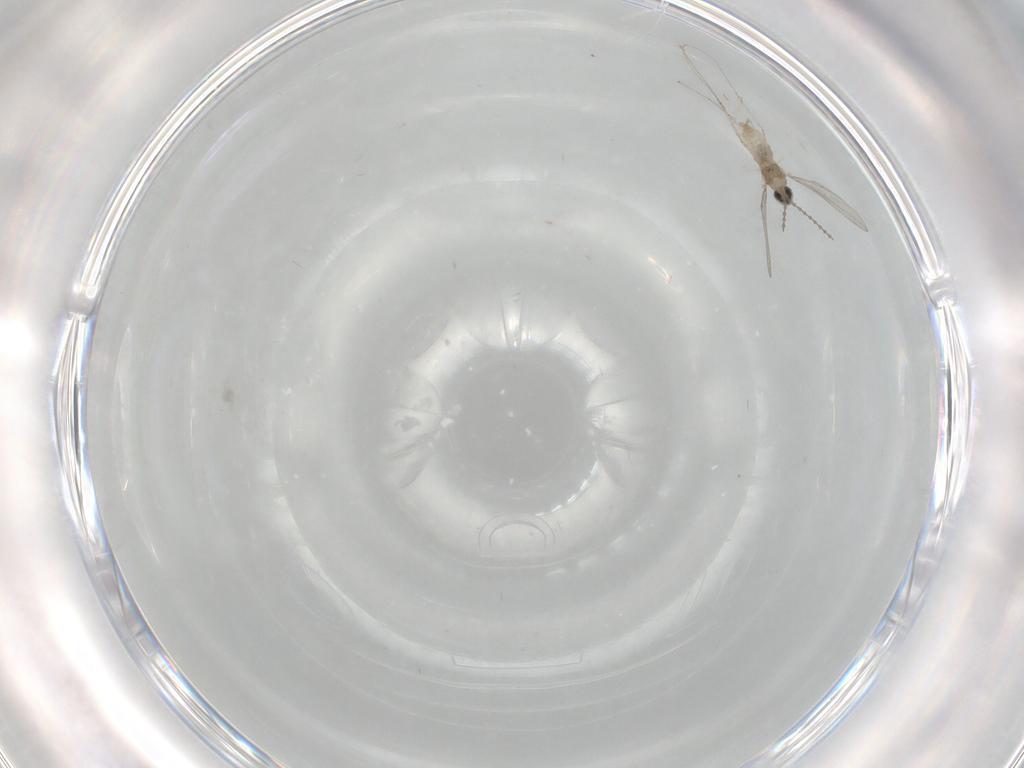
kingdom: Animalia
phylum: Arthropoda
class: Insecta
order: Diptera
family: Cecidomyiidae
